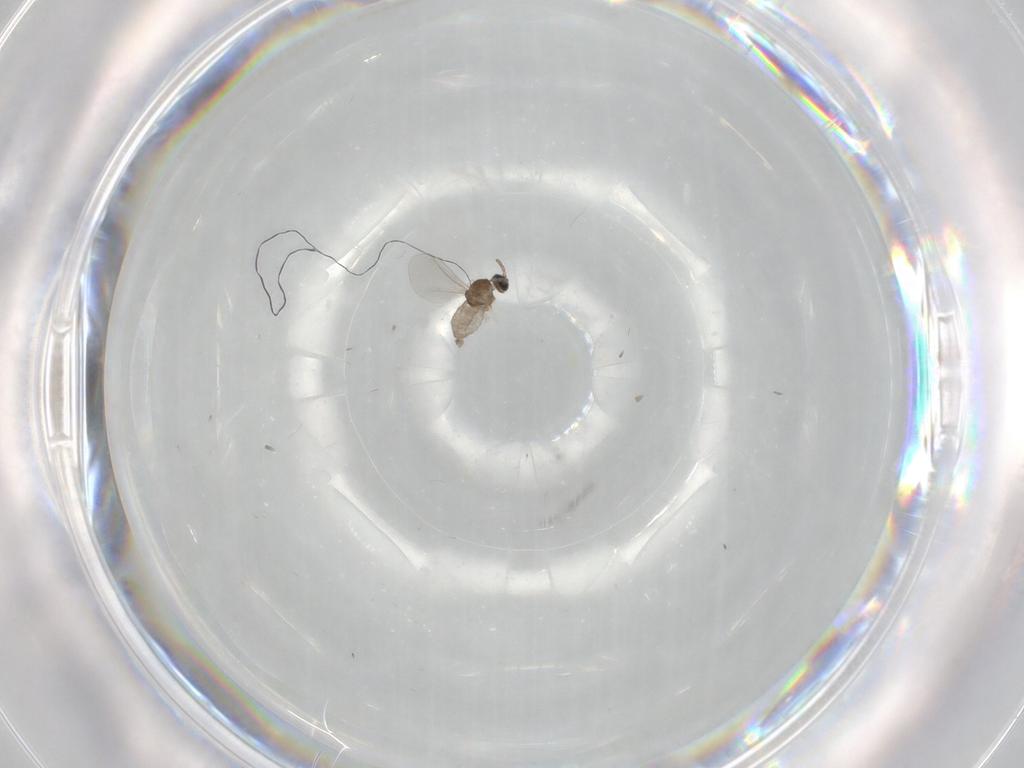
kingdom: Animalia
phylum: Arthropoda
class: Insecta
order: Diptera
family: Cecidomyiidae
